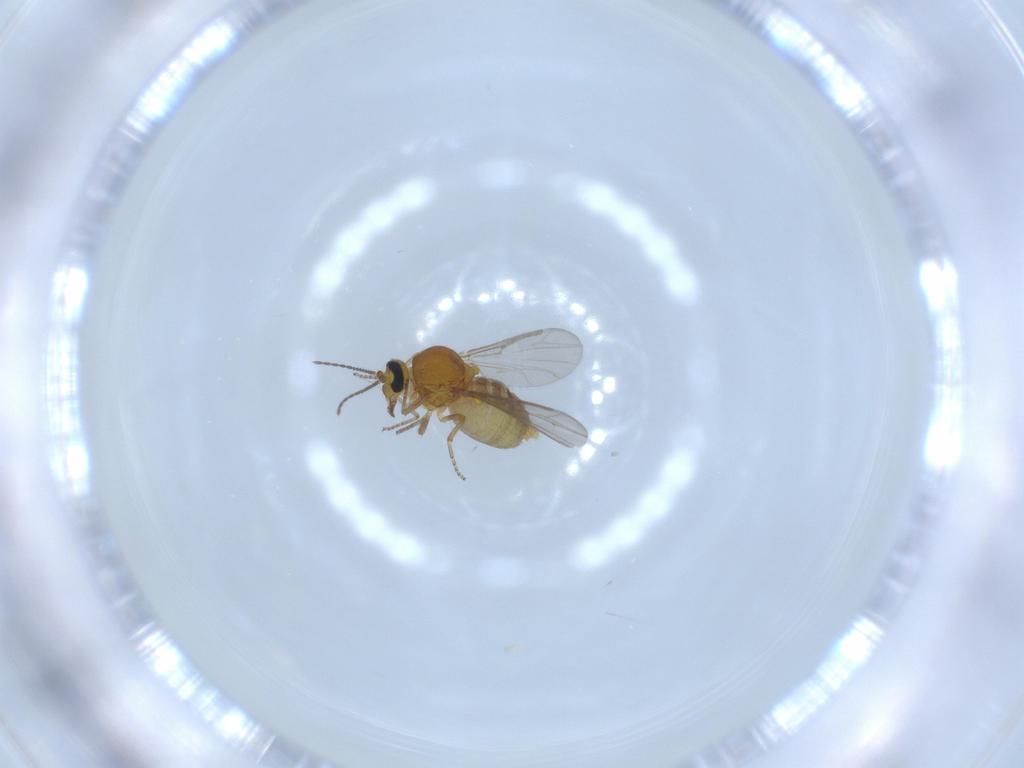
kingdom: Animalia
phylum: Arthropoda
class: Insecta
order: Diptera
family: Ceratopogonidae
